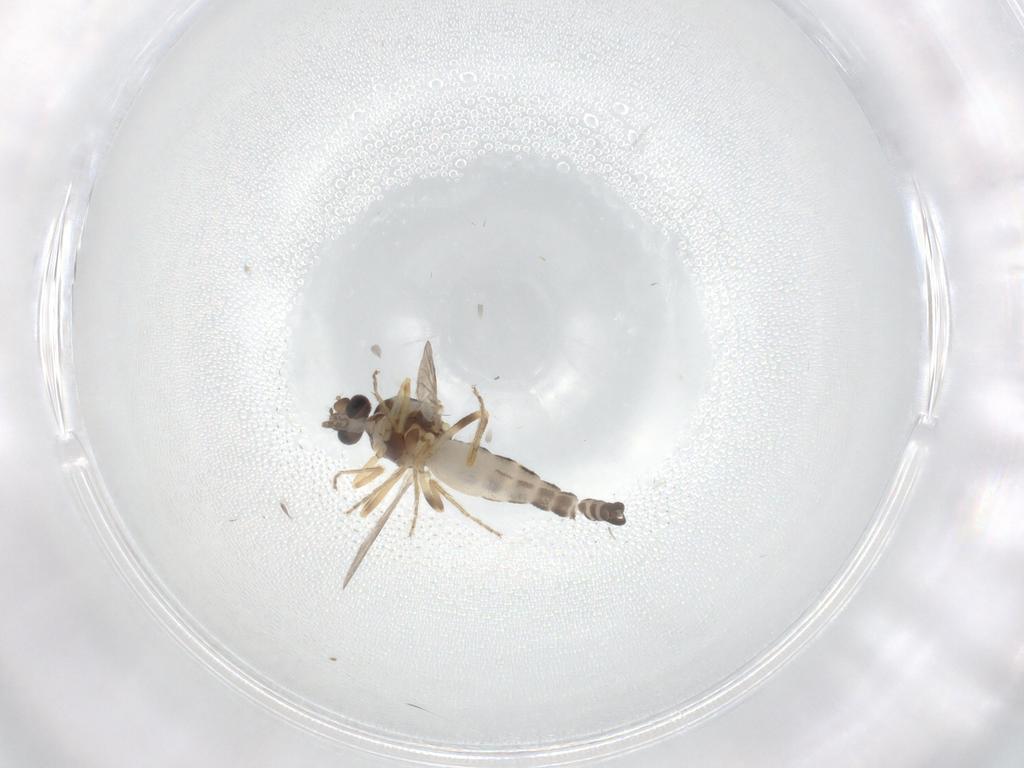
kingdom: Animalia
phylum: Arthropoda
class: Insecta
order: Diptera
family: Ceratopogonidae
